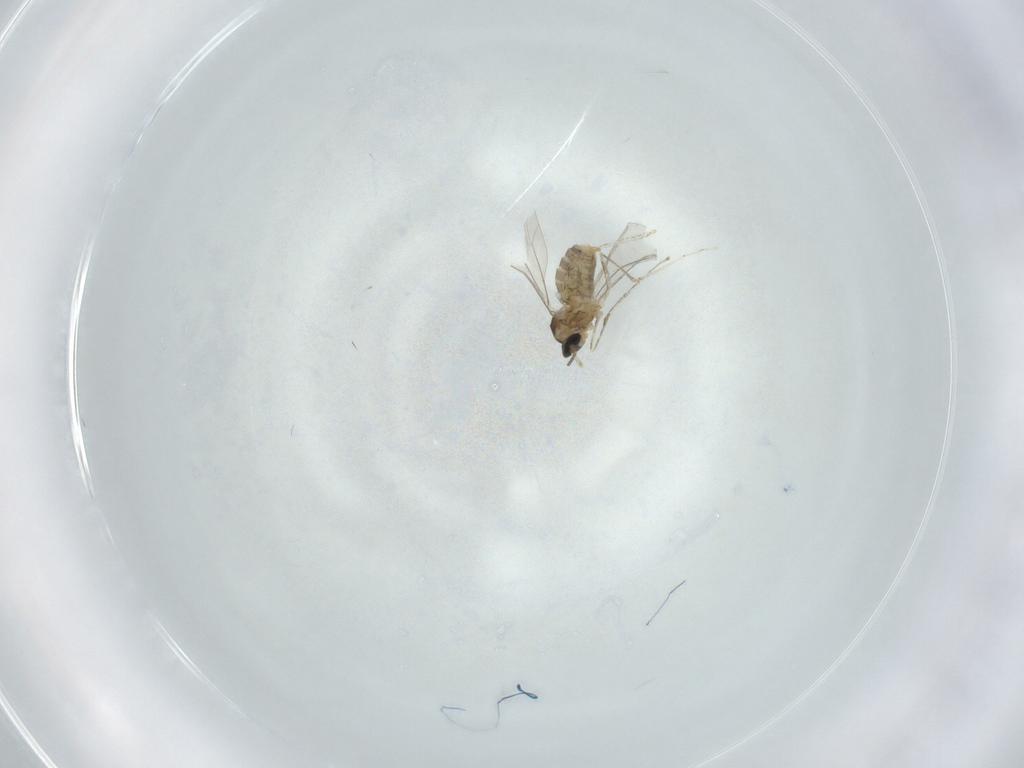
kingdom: Animalia
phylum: Arthropoda
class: Insecta
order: Diptera
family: Cecidomyiidae
